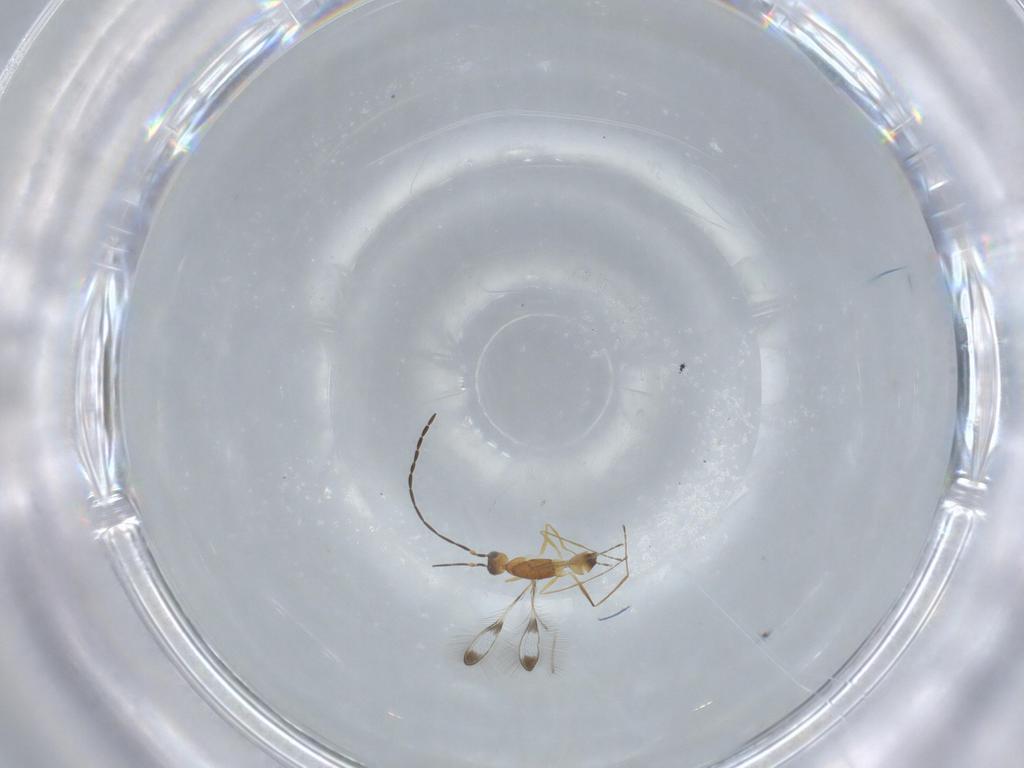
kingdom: Animalia
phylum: Arthropoda
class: Insecta
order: Hymenoptera
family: Mymaridae
